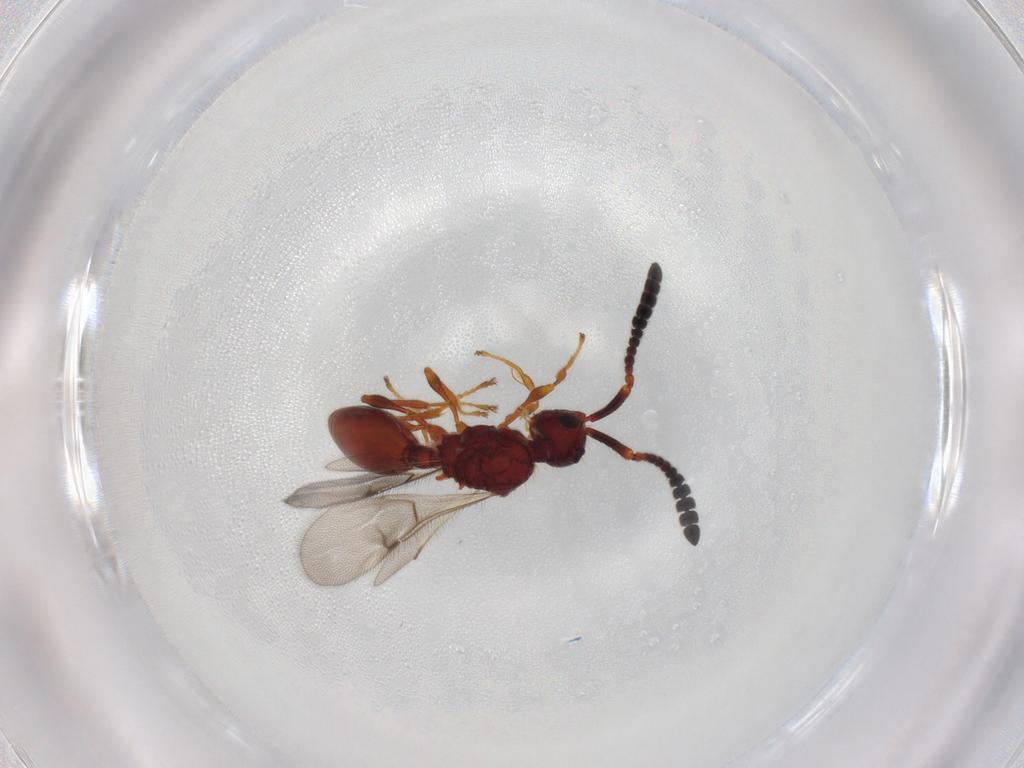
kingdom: Animalia
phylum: Arthropoda
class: Insecta
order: Hymenoptera
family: Diapriidae
